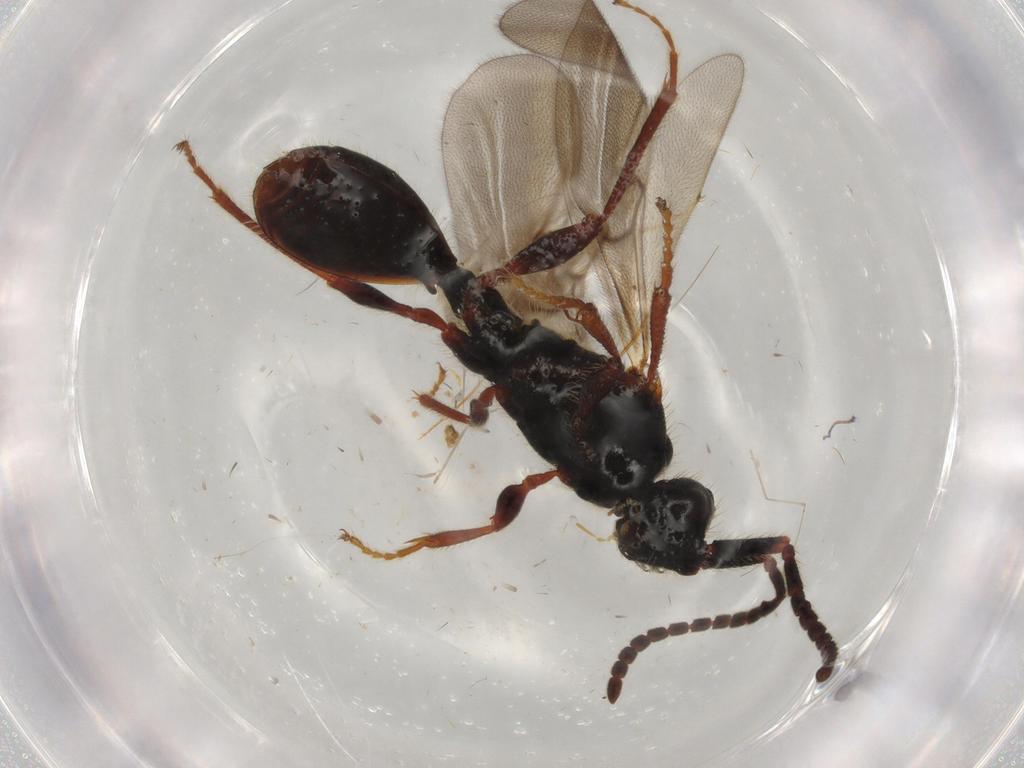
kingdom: Animalia
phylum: Arthropoda
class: Insecta
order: Hymenoptera
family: Diapriidae
